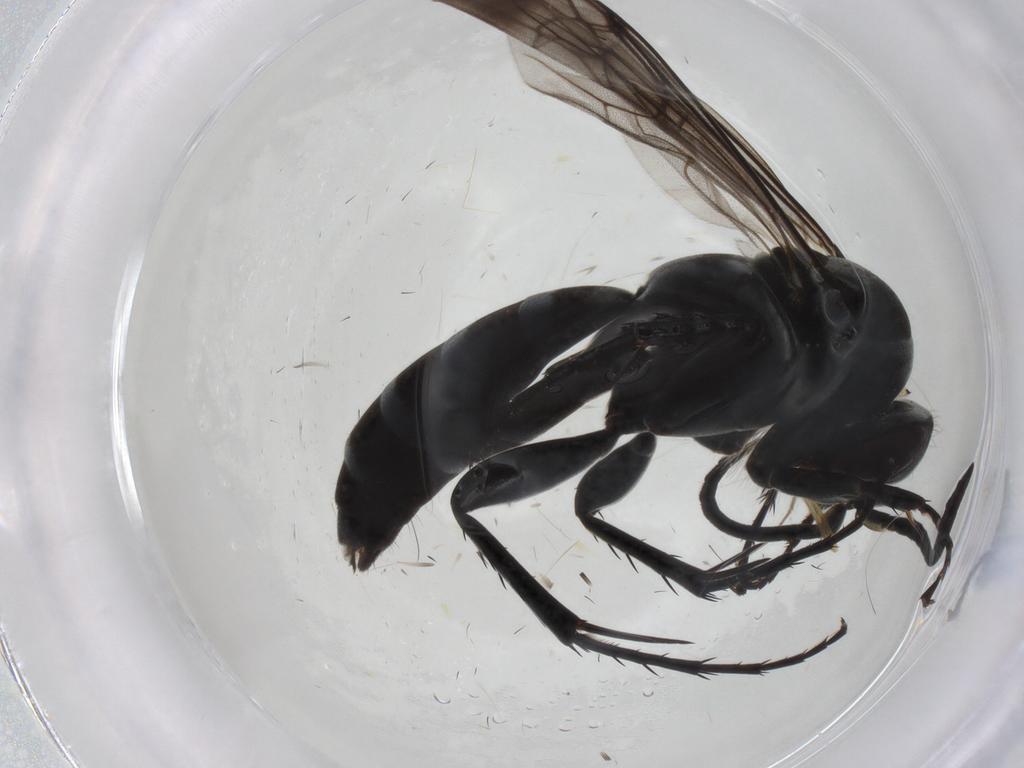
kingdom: Animalia
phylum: Arthropoda
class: Insecta
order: Hymenoptera
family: Pompilidae
